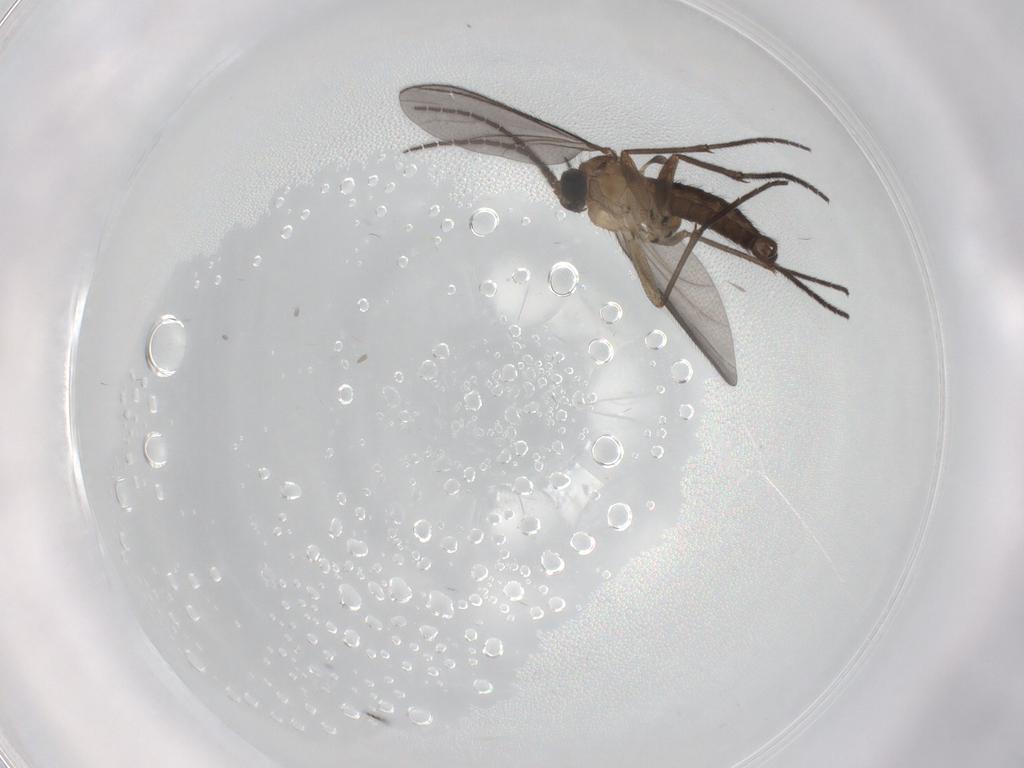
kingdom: Animalia
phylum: Arthropoda
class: Insecta
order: Diptera
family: Sciaridae
